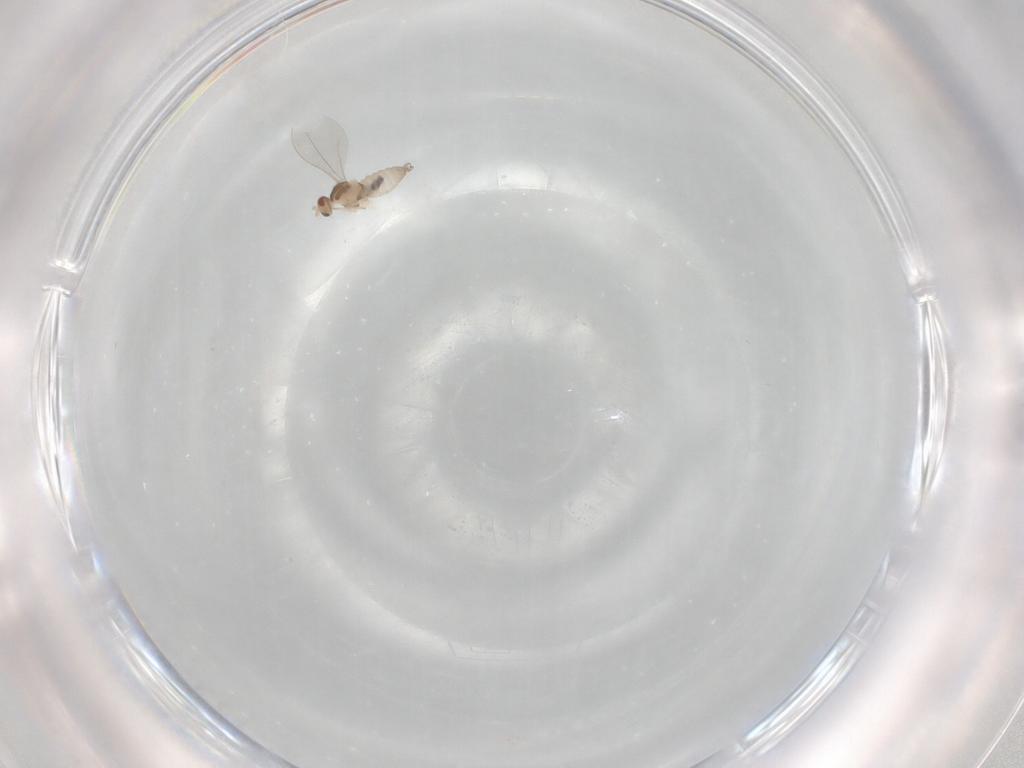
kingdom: Animalia
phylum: Arthropoda
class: Insecta
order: Diptera
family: Cecidomyiidae
